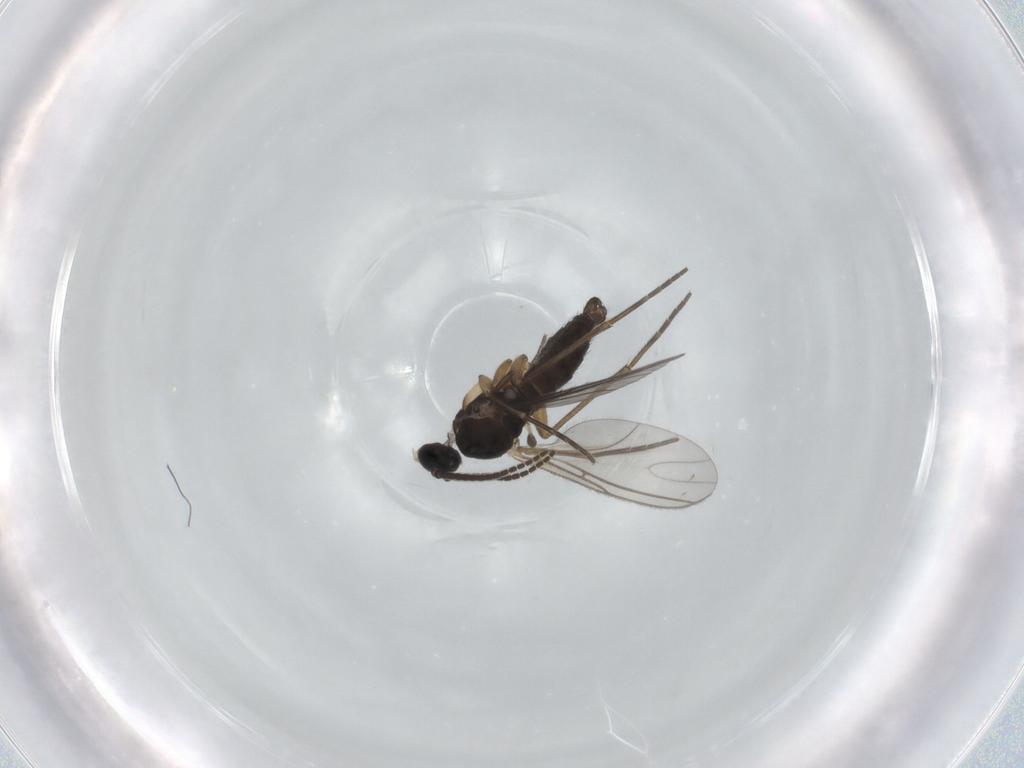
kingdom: Animalia
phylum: Arthropoda
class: Insecta
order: Diptera
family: Sciaridae
